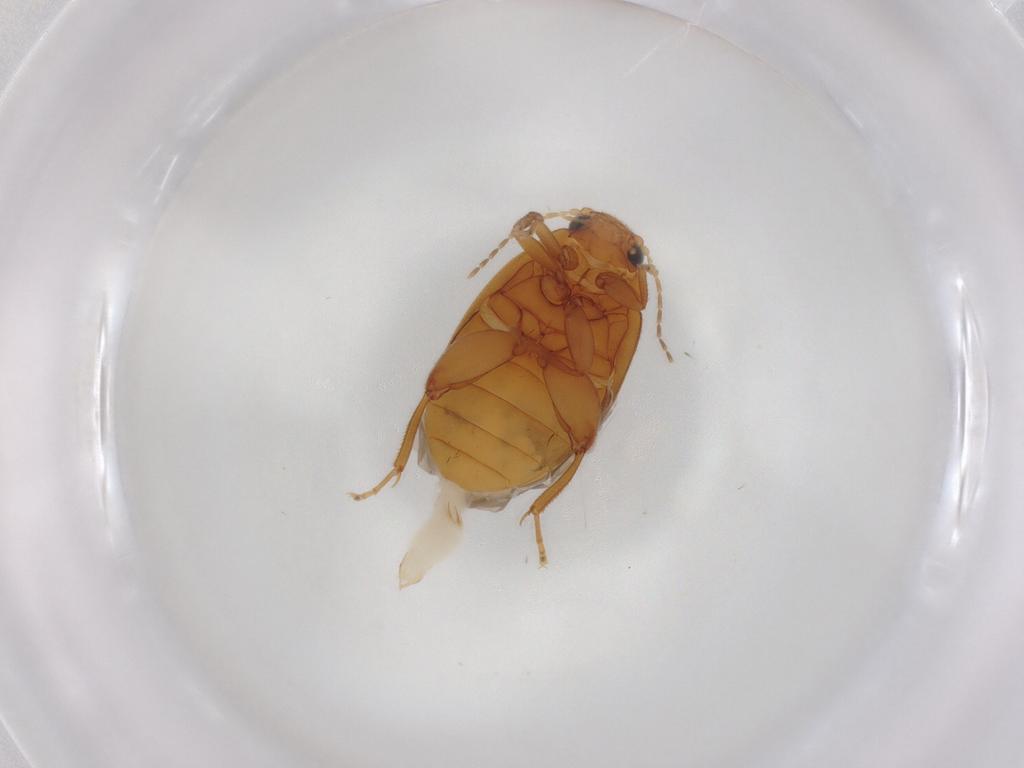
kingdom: Animalia
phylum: Arthropoda
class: Insecta
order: Coleoptera
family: Scirtidae
